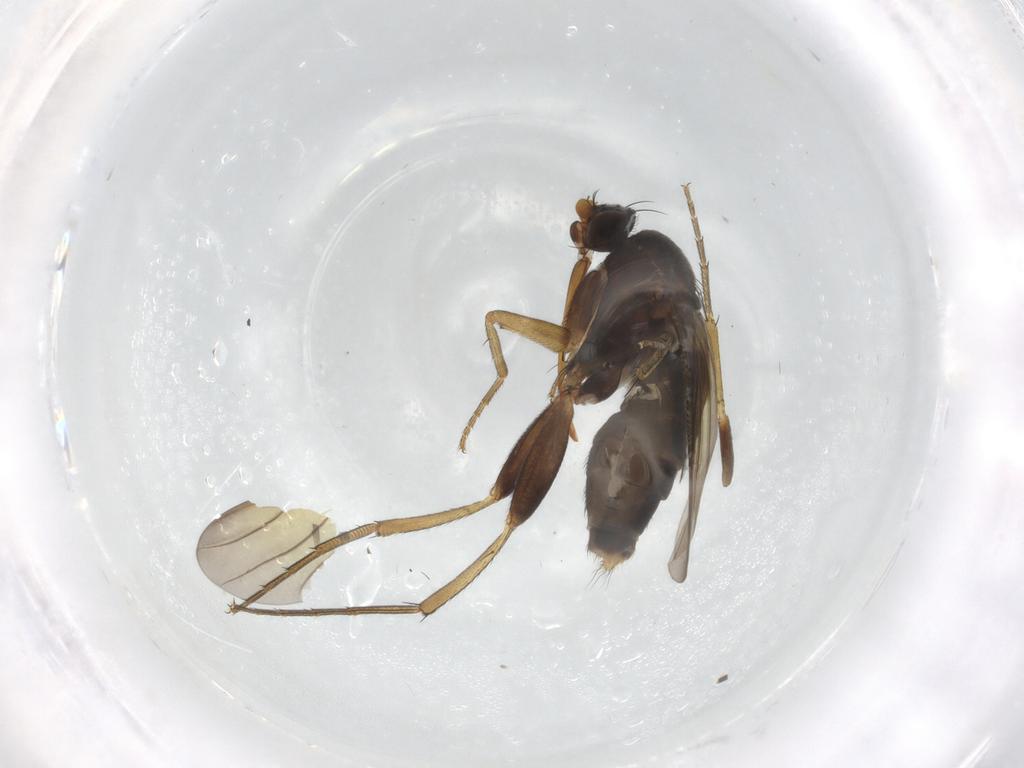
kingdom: Animalia
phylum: Arthropoda
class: Insecta
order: Diptera
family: Phoridae
